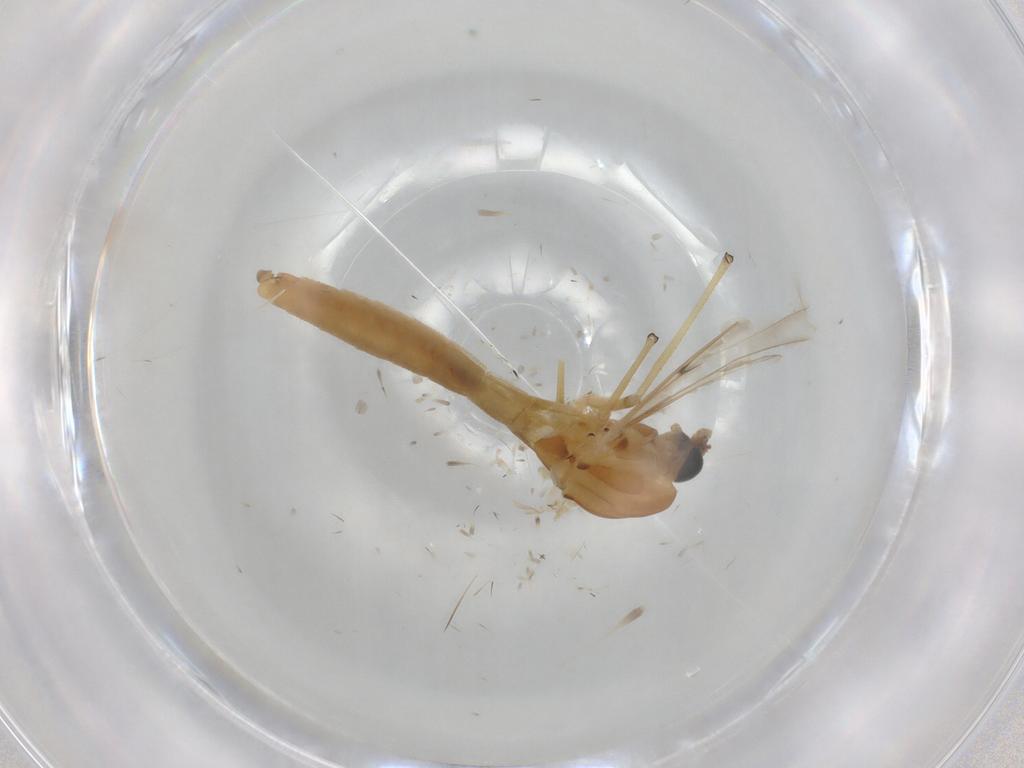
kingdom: Animalia
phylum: Arthropoda
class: Insecta
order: Diptera
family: Chironomidae
